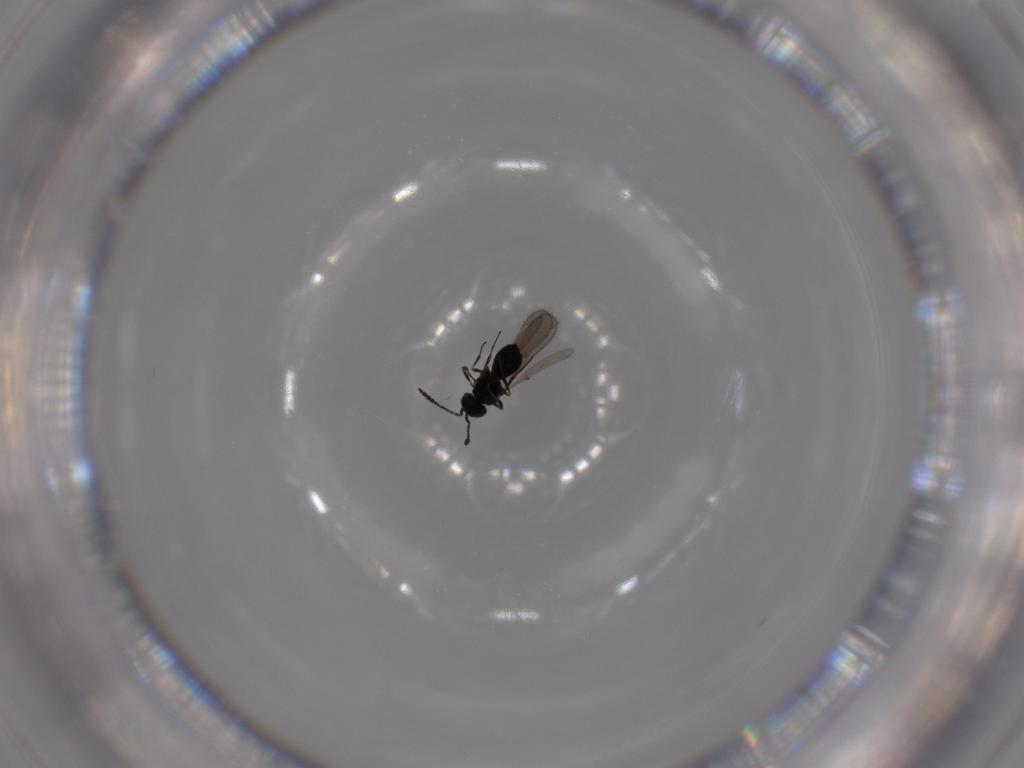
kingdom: Animalia
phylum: Arthropoda
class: Insecta
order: Hymenoptera
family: Scelionidae
